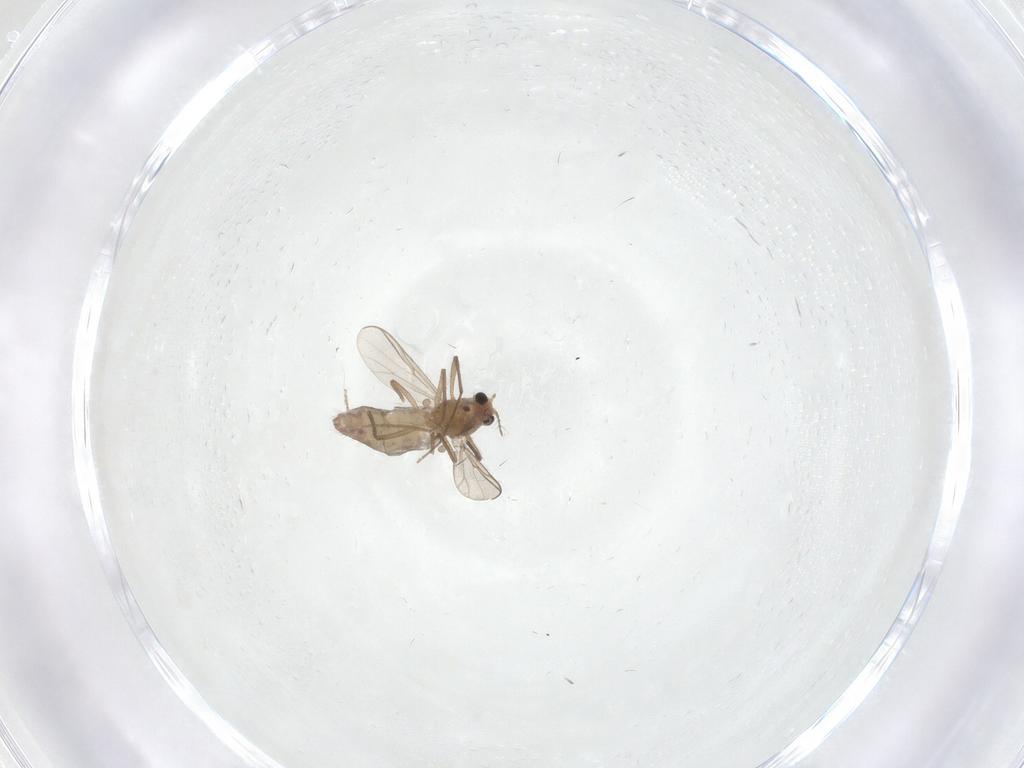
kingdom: Animalia
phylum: Arthropoda
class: Insecta
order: Diptera
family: Chironomidae
